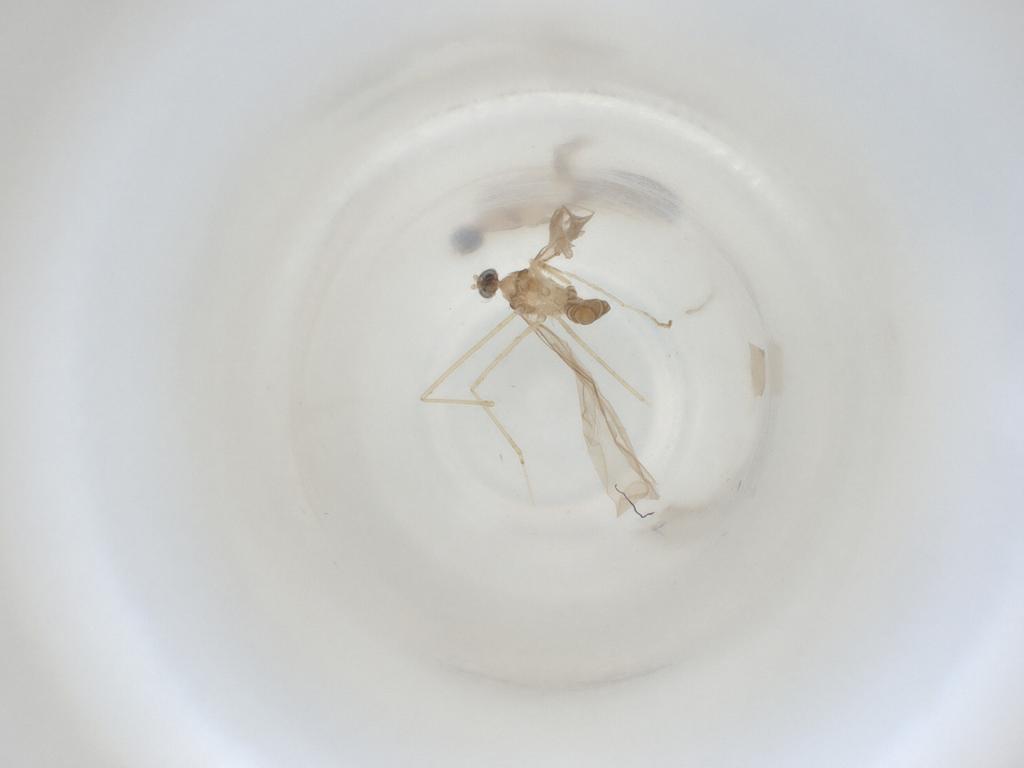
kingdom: Animalia
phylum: Arthropoda
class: Insecta
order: Diptera
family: Cecidomyiidae
